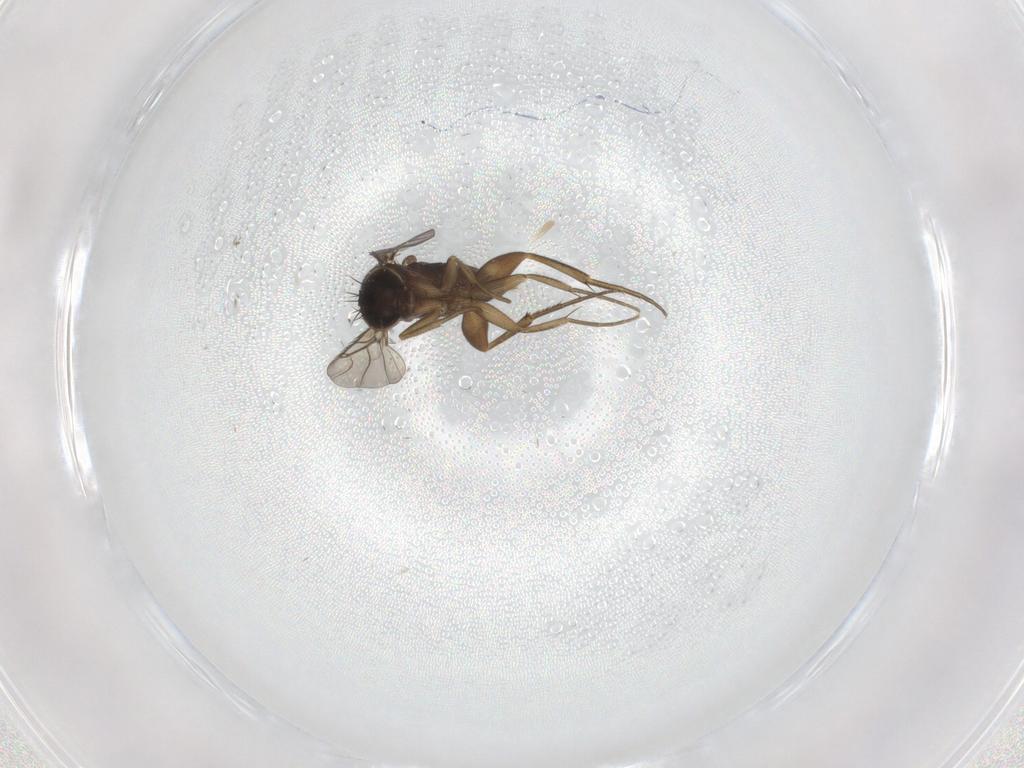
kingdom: Animalia
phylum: Arthropoda
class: Insecta
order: Diptera
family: Phoridae
